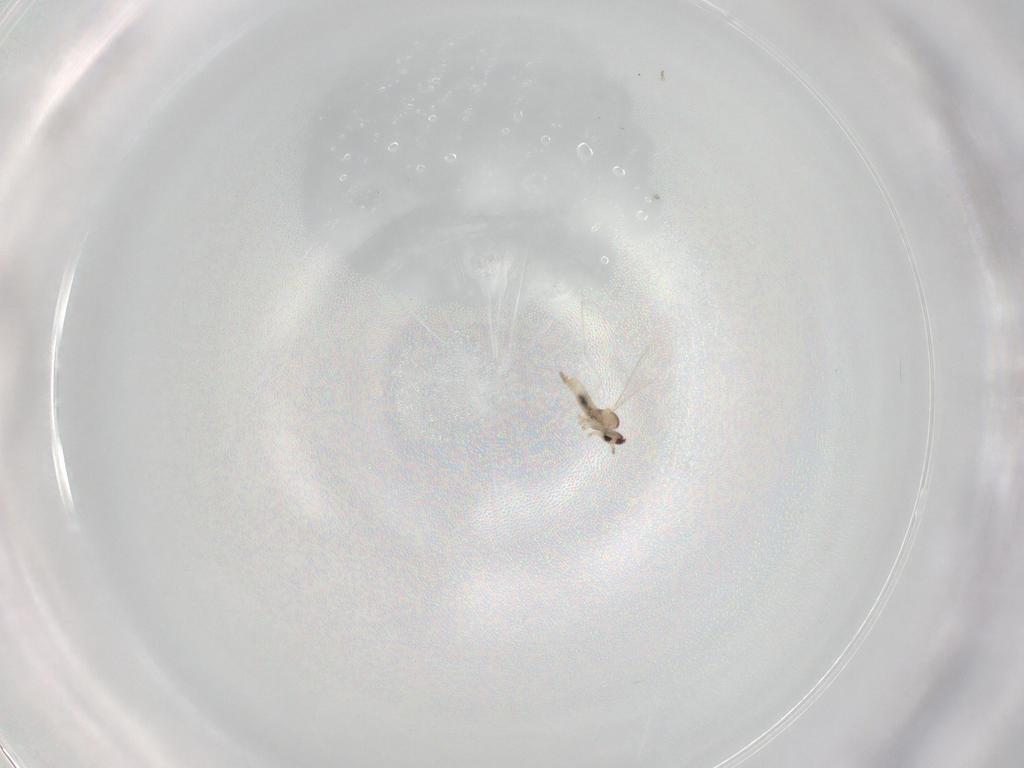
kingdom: Animalia
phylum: Arthropoda
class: Insecta
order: Diptera
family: Cecidomyiidae
